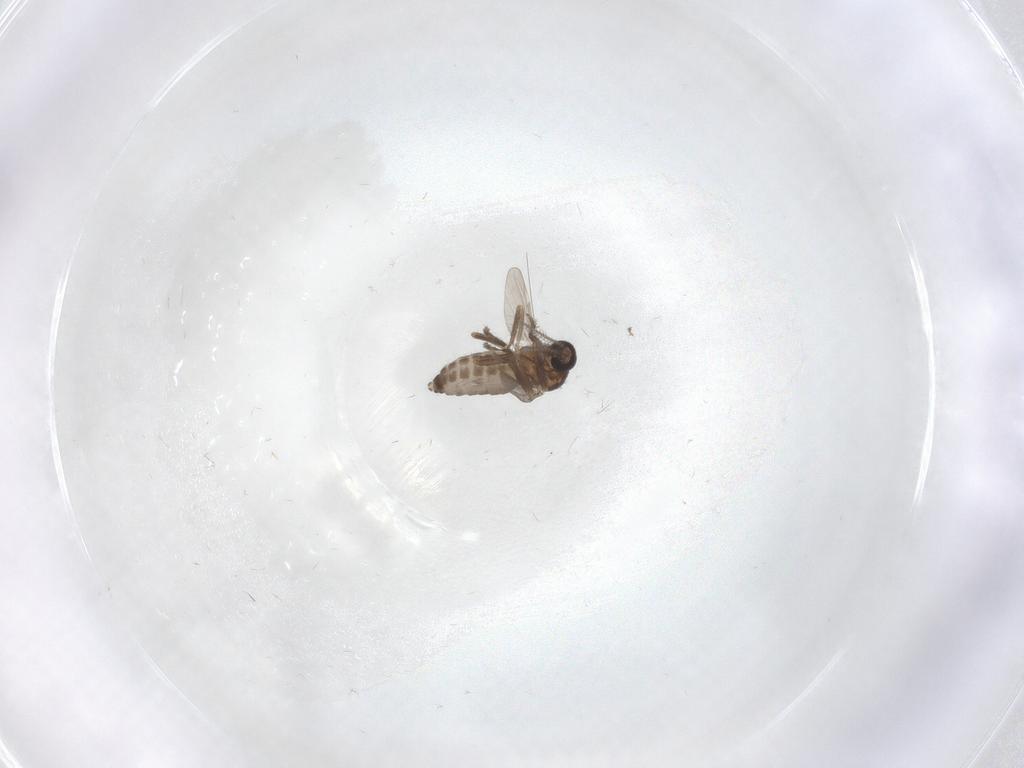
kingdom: Animalia
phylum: Arthropoda
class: Insecta
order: Diptera
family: Ceratopogonidae
